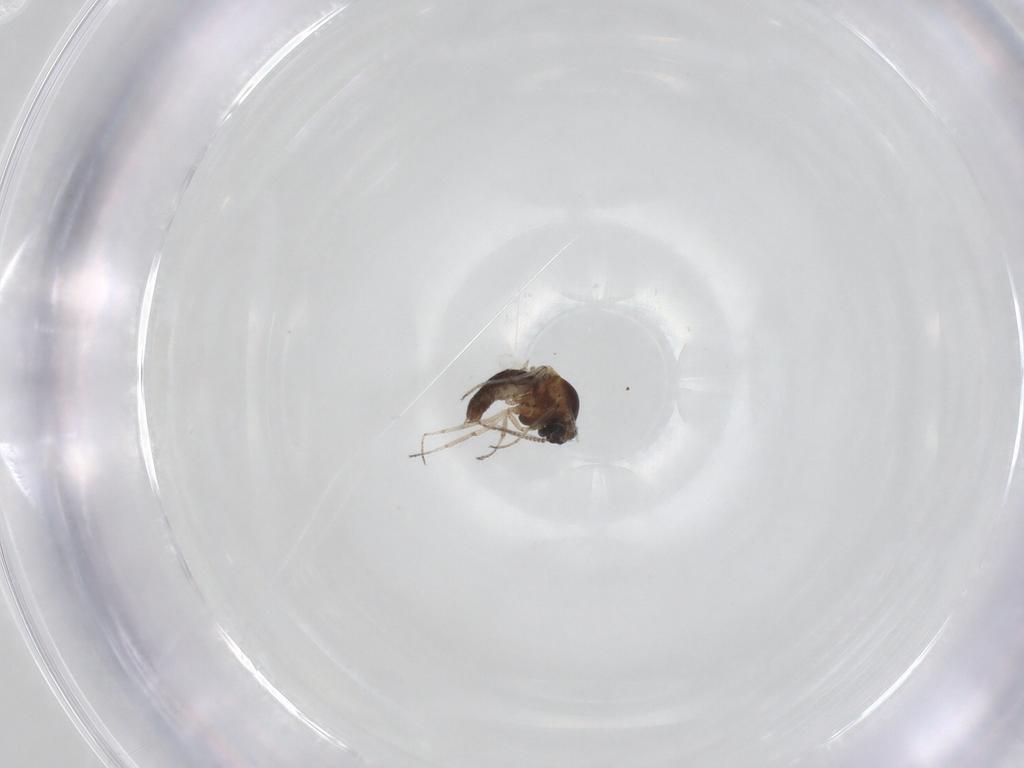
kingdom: Animalia
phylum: Arthropoda
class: Insecta
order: Diptera
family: Ceratopogonidae
